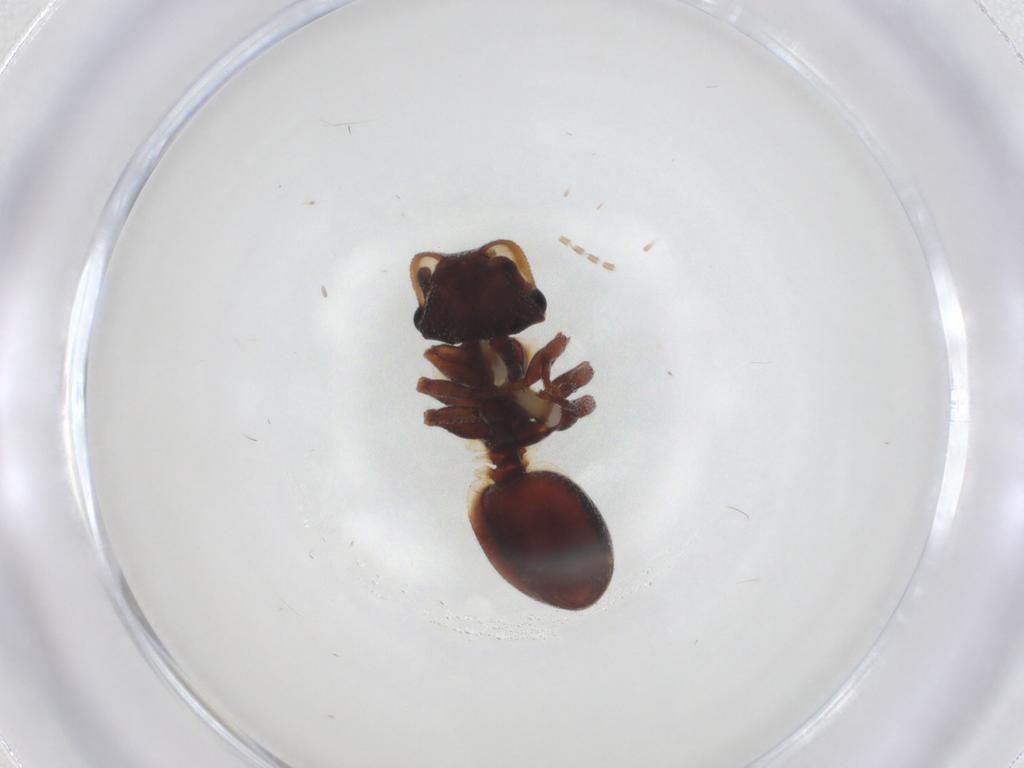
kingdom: Animalia
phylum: Arthropoda
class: Insecta
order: Hymenoptera
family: Formicidae
